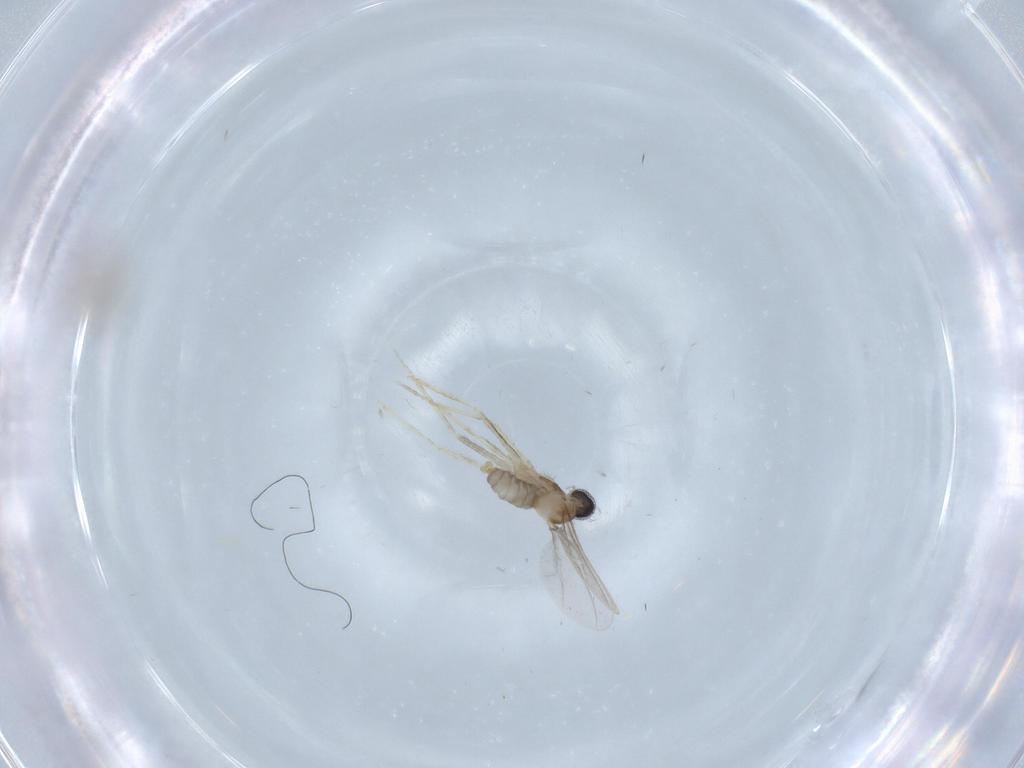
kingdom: Animalia
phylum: Arthropoda
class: Insecta
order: Diptera
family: Cecidomyiidae
